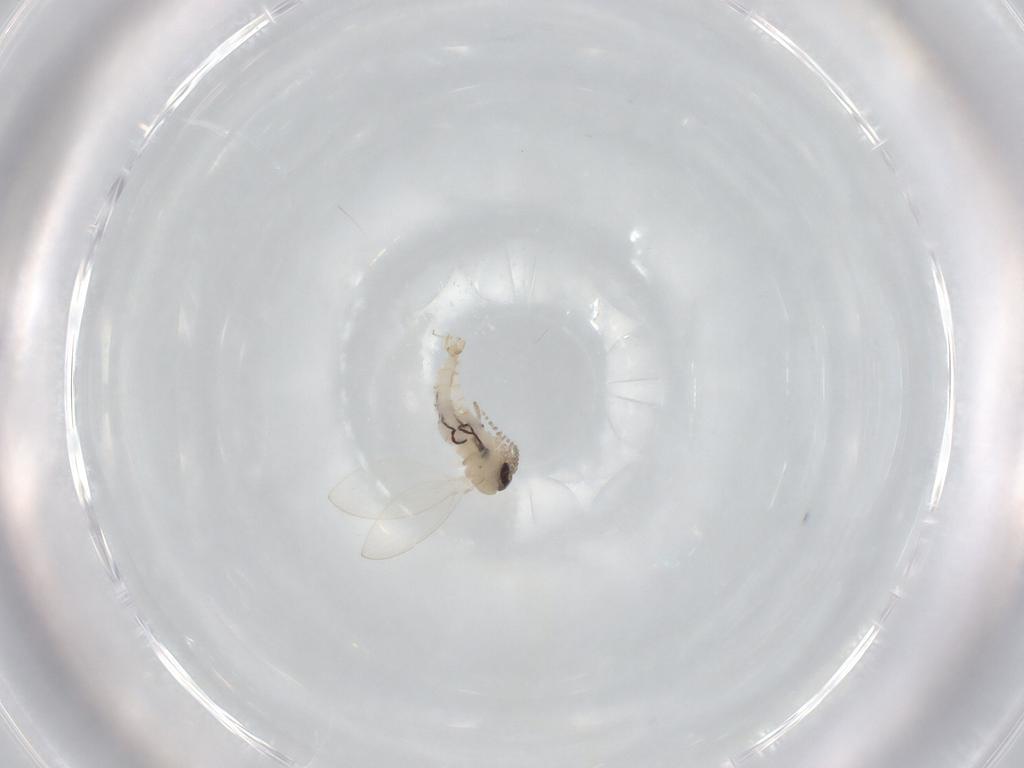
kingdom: Animalia
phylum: Arthropoda
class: Insecta
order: Diptera
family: Psychodidae
